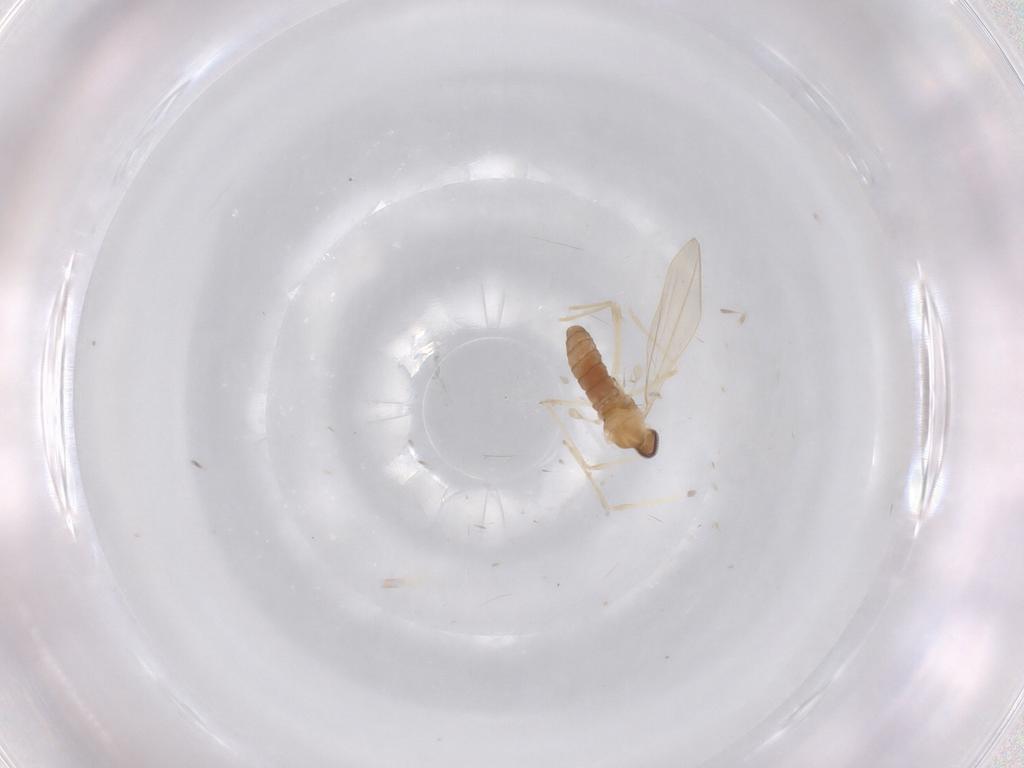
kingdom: Animalia
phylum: Arthropoda
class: Insecta
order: Diptera
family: Cecidomyiidae
